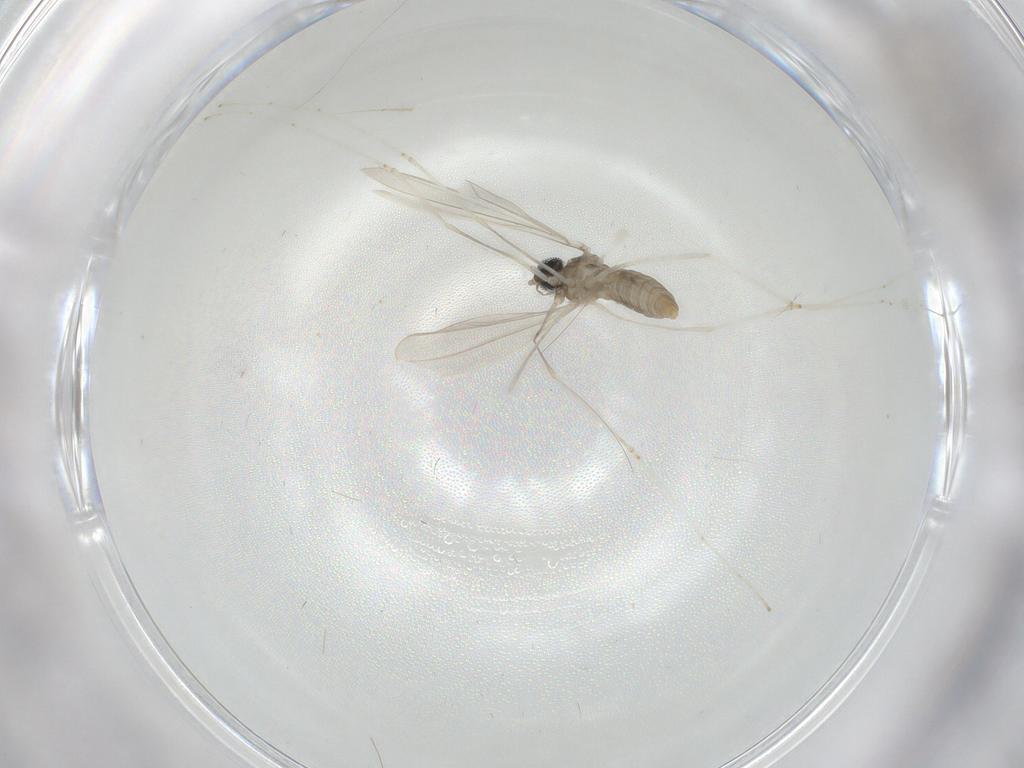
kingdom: Animalia
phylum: Arthropoda
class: Insecta
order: Diptera
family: Cecidomyiidae
